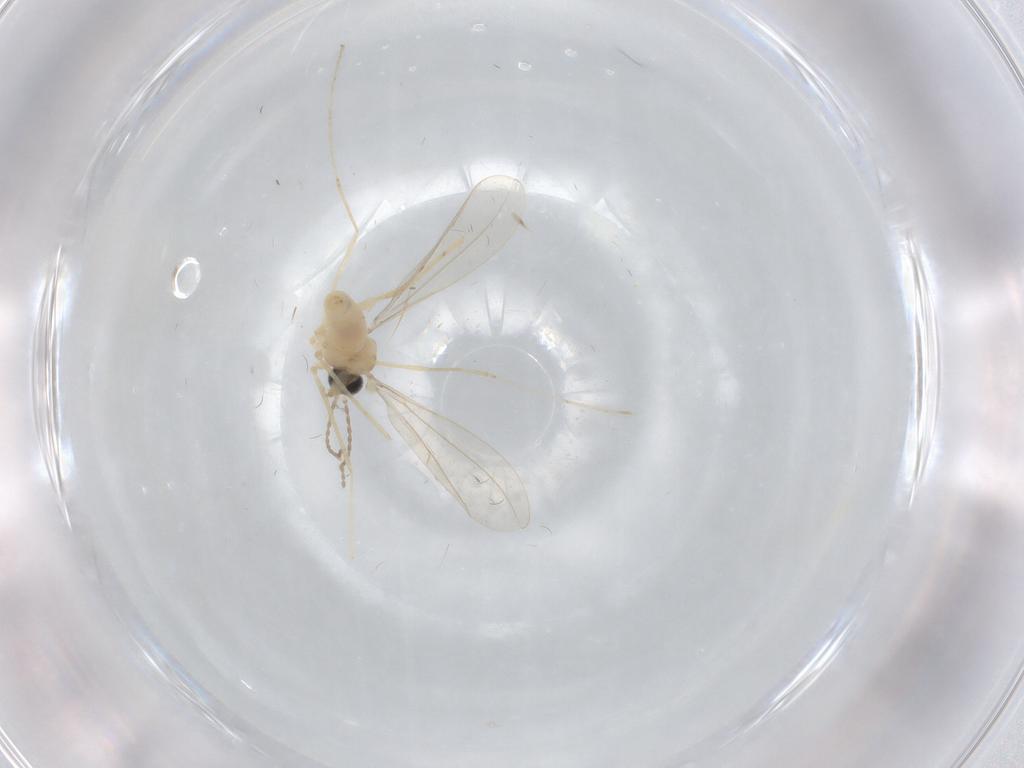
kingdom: Animalia
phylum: Arthropoda
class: Insecta
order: Diptera
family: Cecidomyiidae
